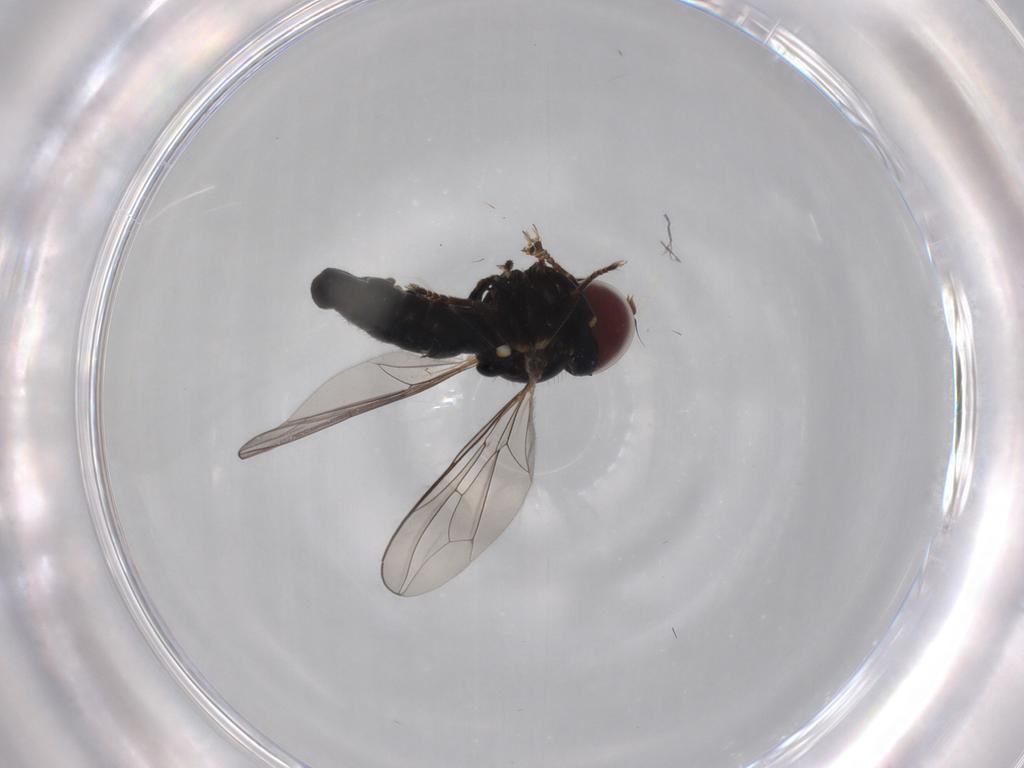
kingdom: Animalia
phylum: Arthropoda
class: Insecta
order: Diptera
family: Pipunculidae
